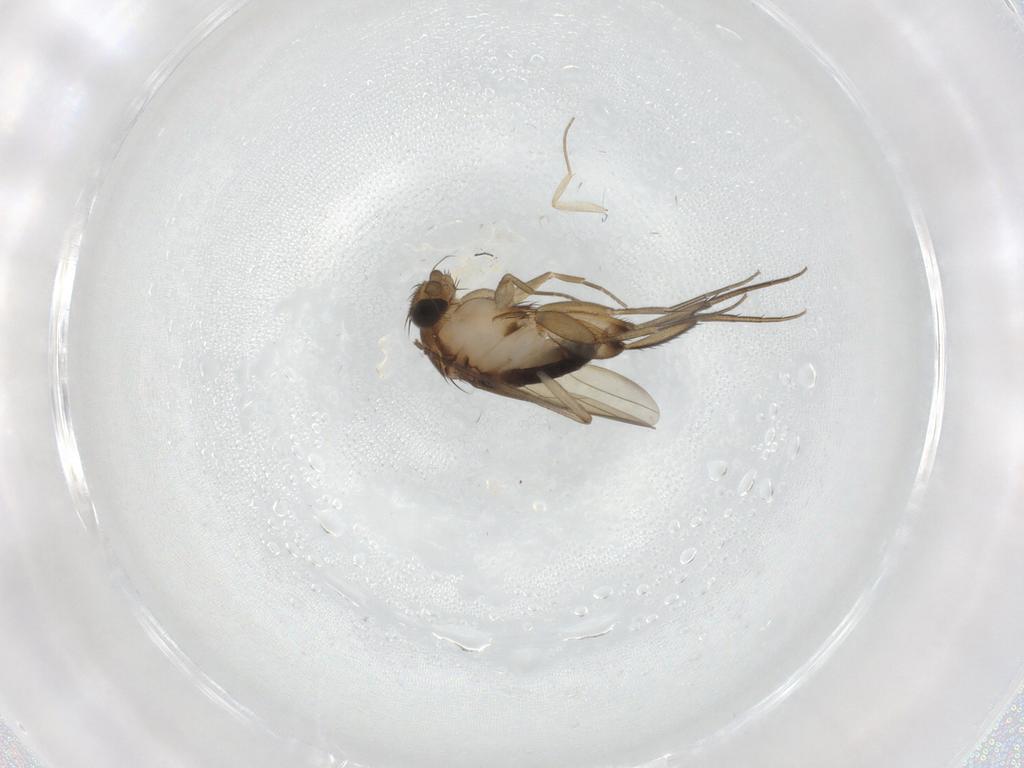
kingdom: Animalia
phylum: Arthropoda
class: Insecta
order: Diptera
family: Phoridae
